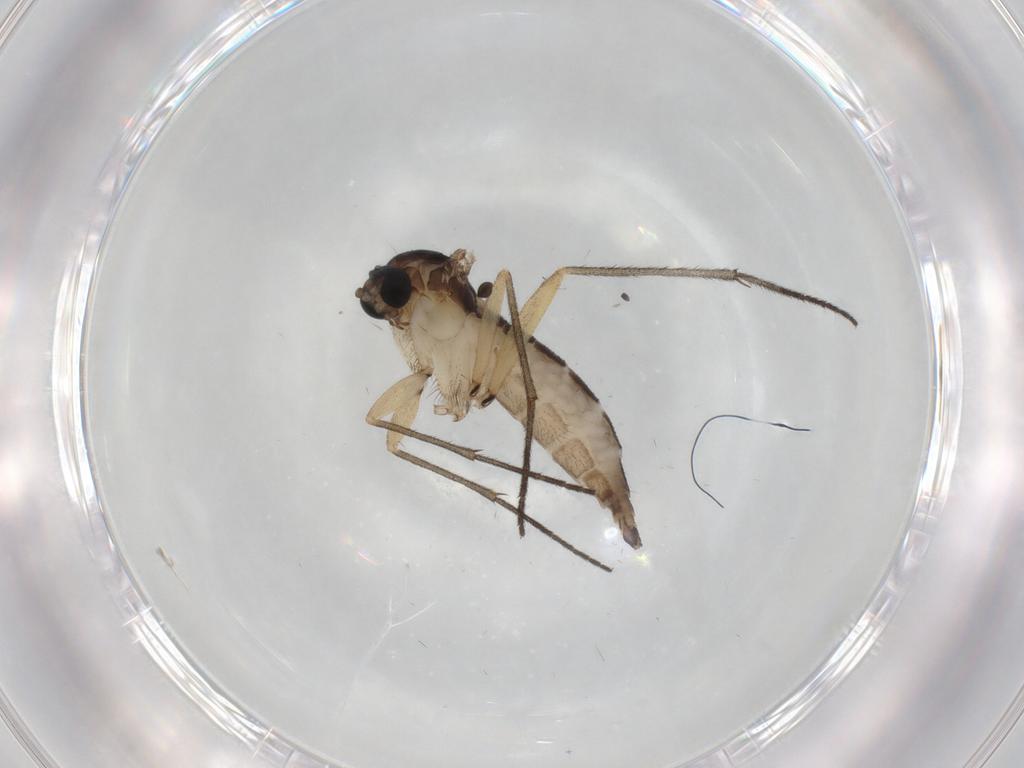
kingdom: Animalia
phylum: Arthropoda
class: Insecta
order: Diptera
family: Sciaridae
